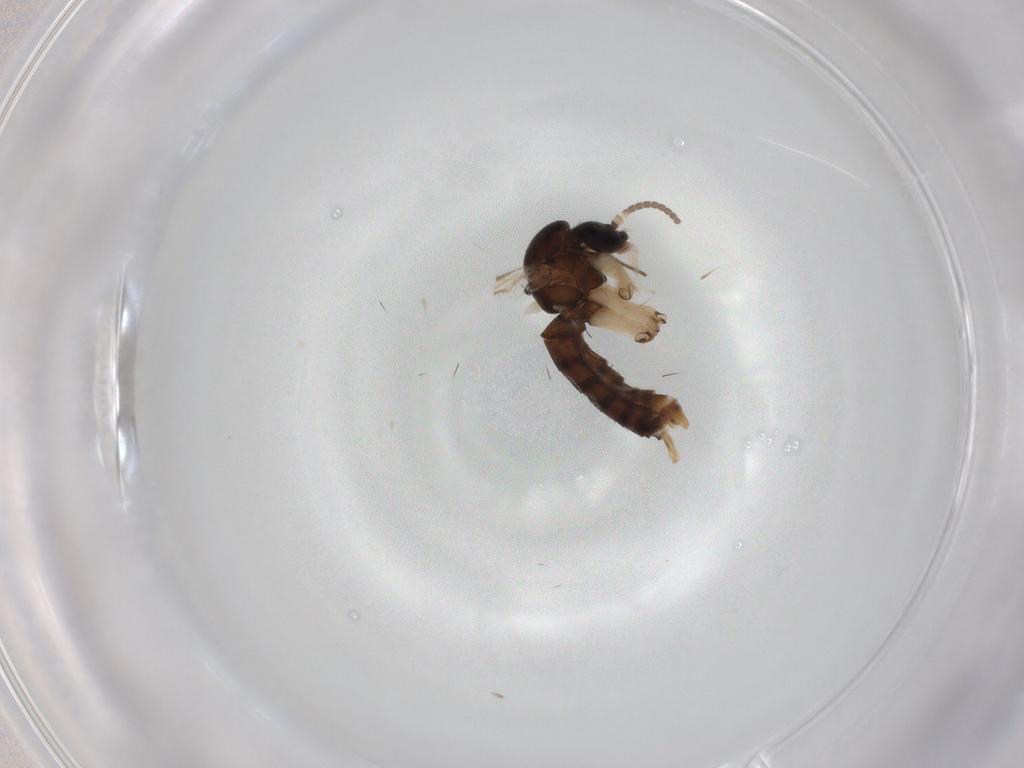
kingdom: Animalia
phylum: Arthropoda
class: Insecta
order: Diptera
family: Chironomidae
